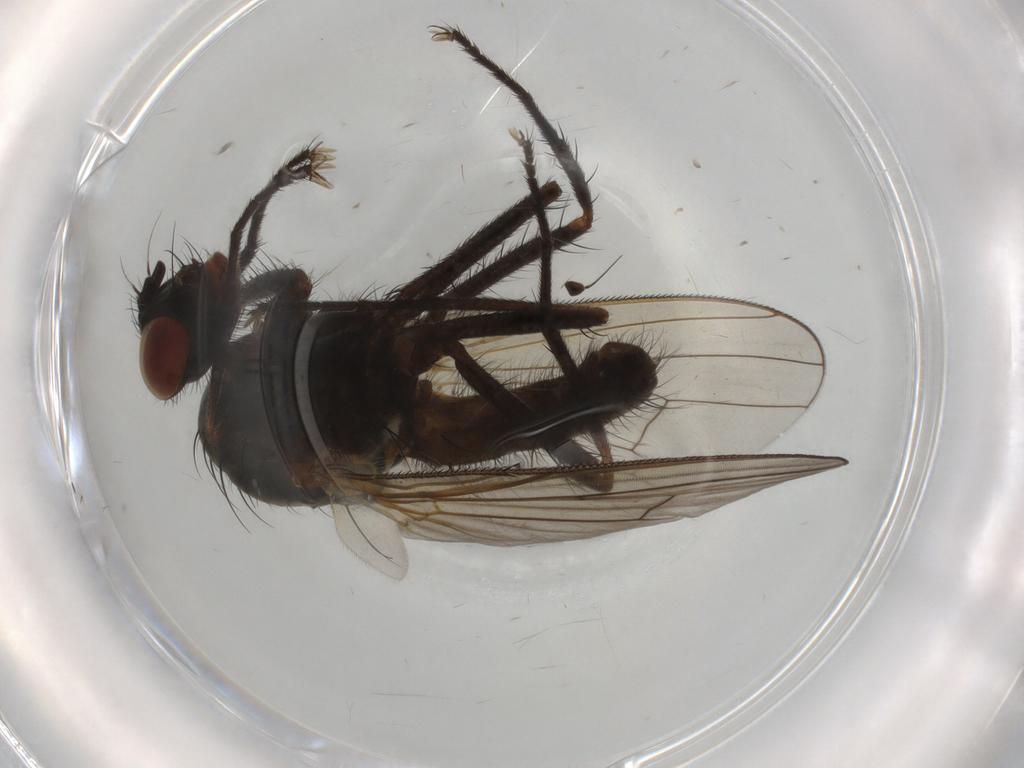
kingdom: Animalia
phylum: Arthropoda
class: Insecta
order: Diptera
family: Anthomyiidae
